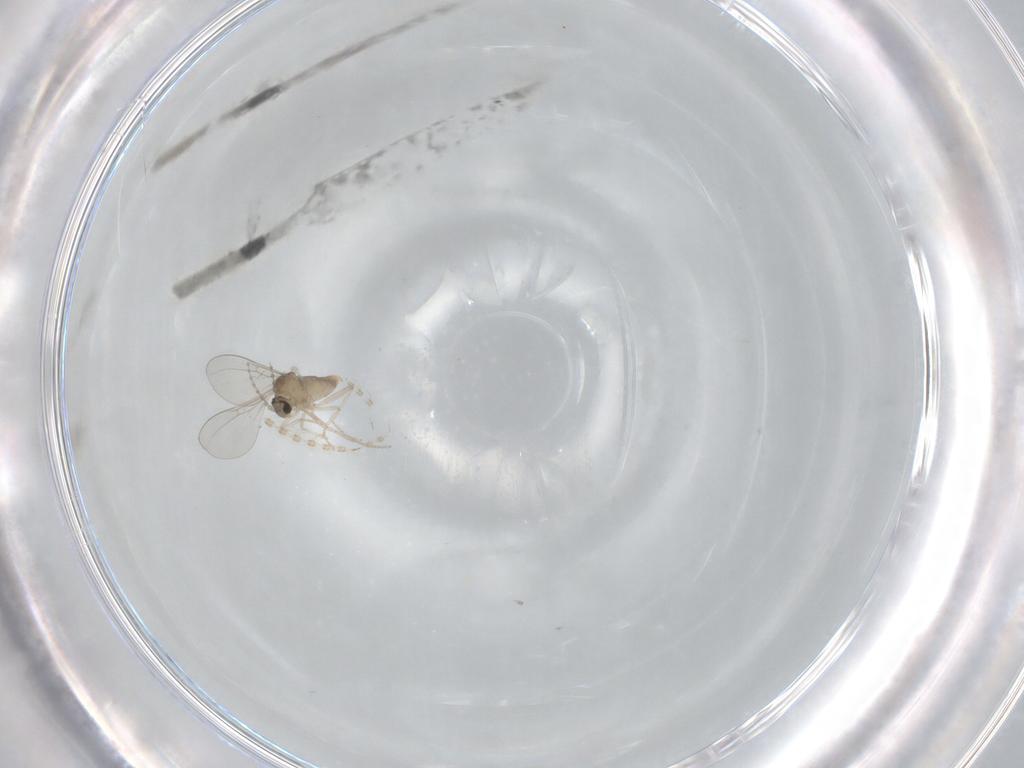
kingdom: Animalia
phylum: Arthropoda
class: Insecta
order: Diptera
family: Cecidomyiidae
